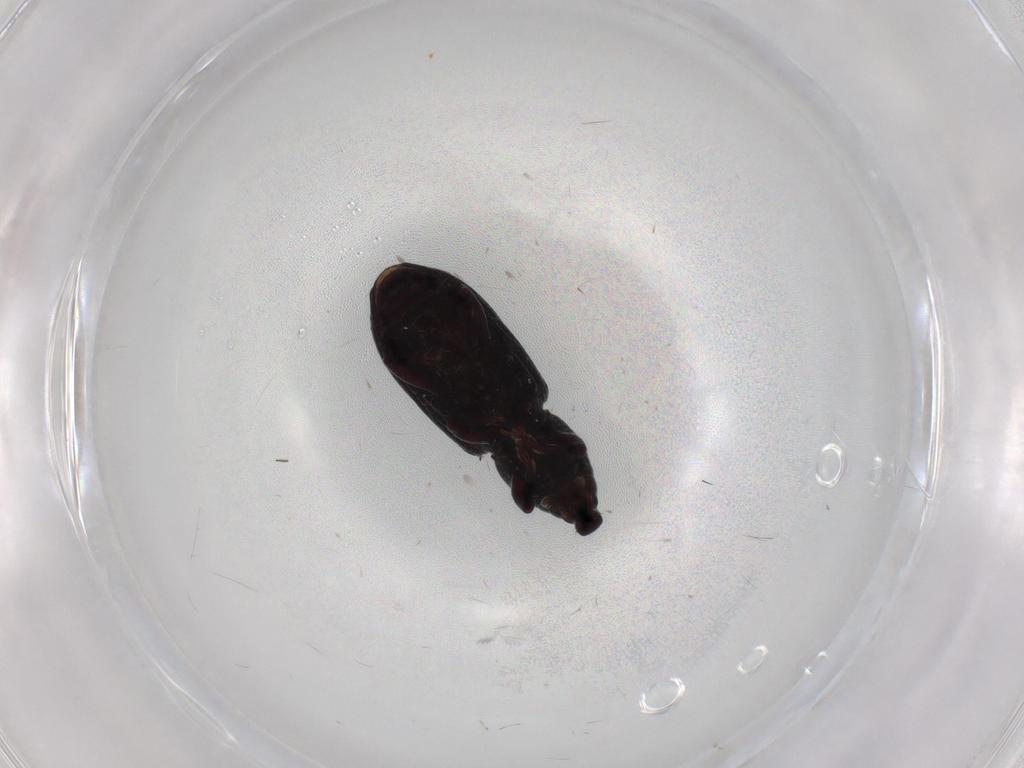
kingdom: Animalia
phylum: Arthropoda
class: Insecta
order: Coleoptera
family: Curculionidae
